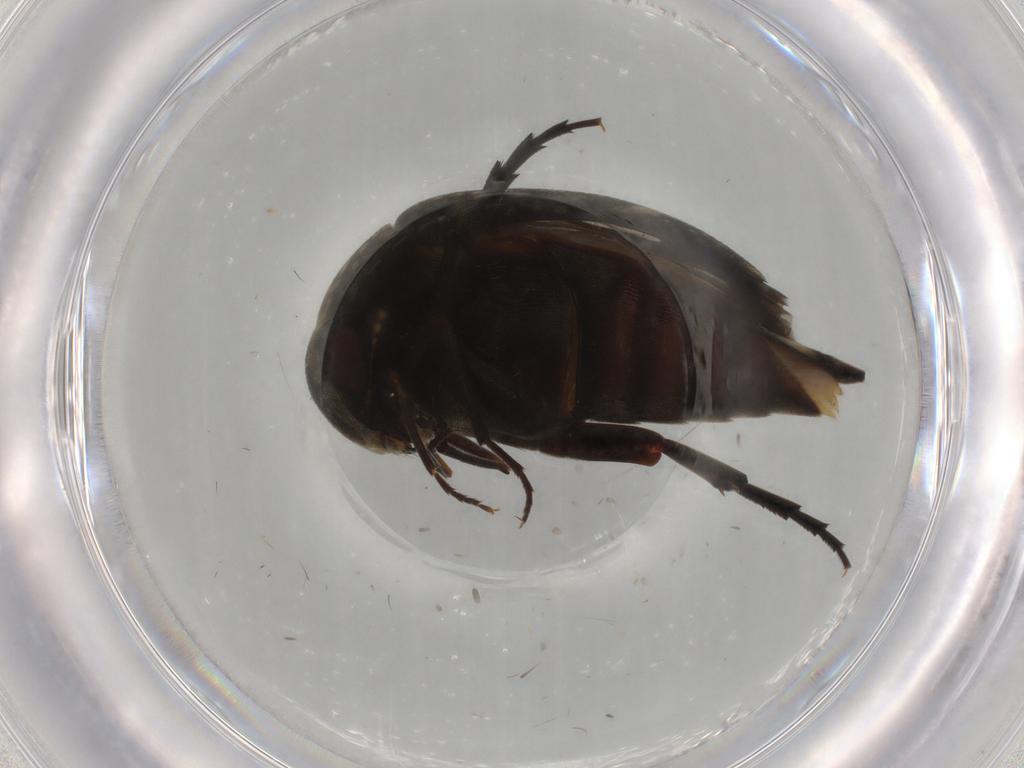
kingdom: Animalia
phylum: Arthropoda
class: Insecta
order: Coleoptera
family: Mordellidae
